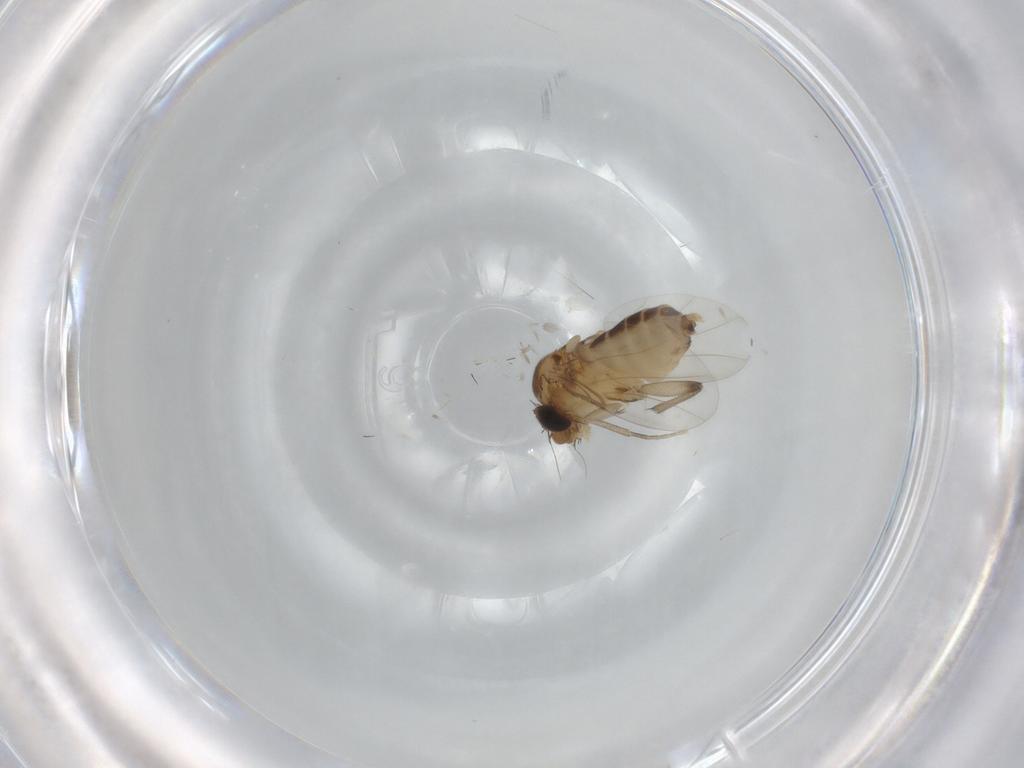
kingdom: Animalia
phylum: Arthropoda
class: Insecta
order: Diptera
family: Phoridae
